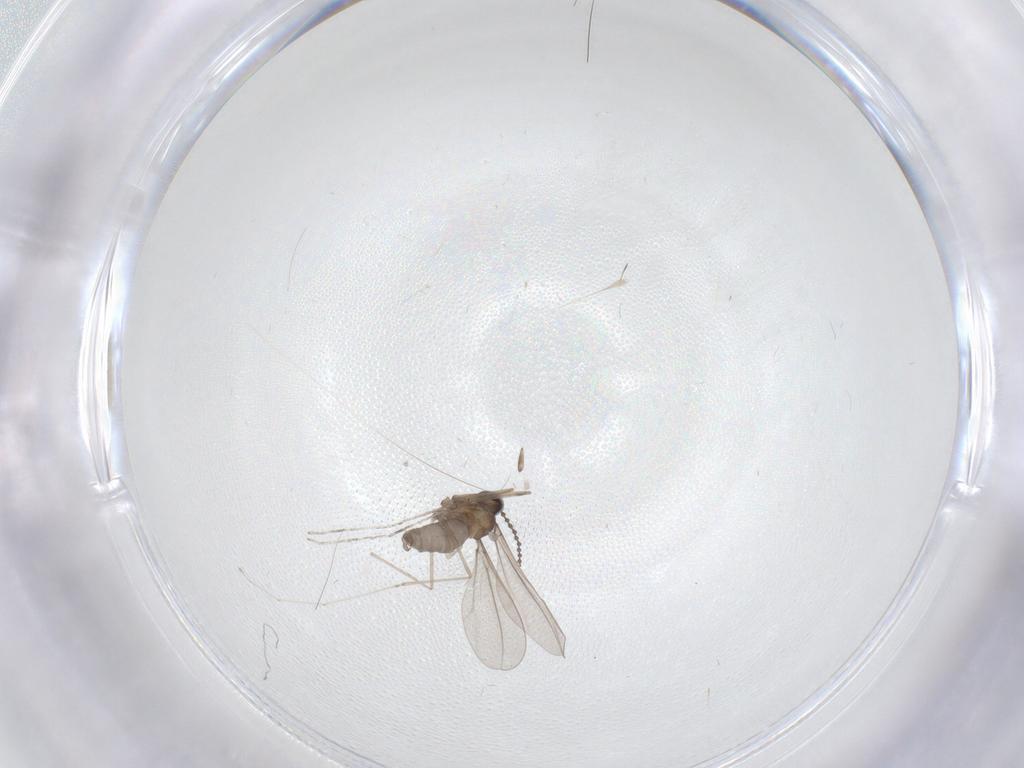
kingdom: Animalia
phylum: Arthropoda
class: Insecta
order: Diptera
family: Cecidomyiidae
